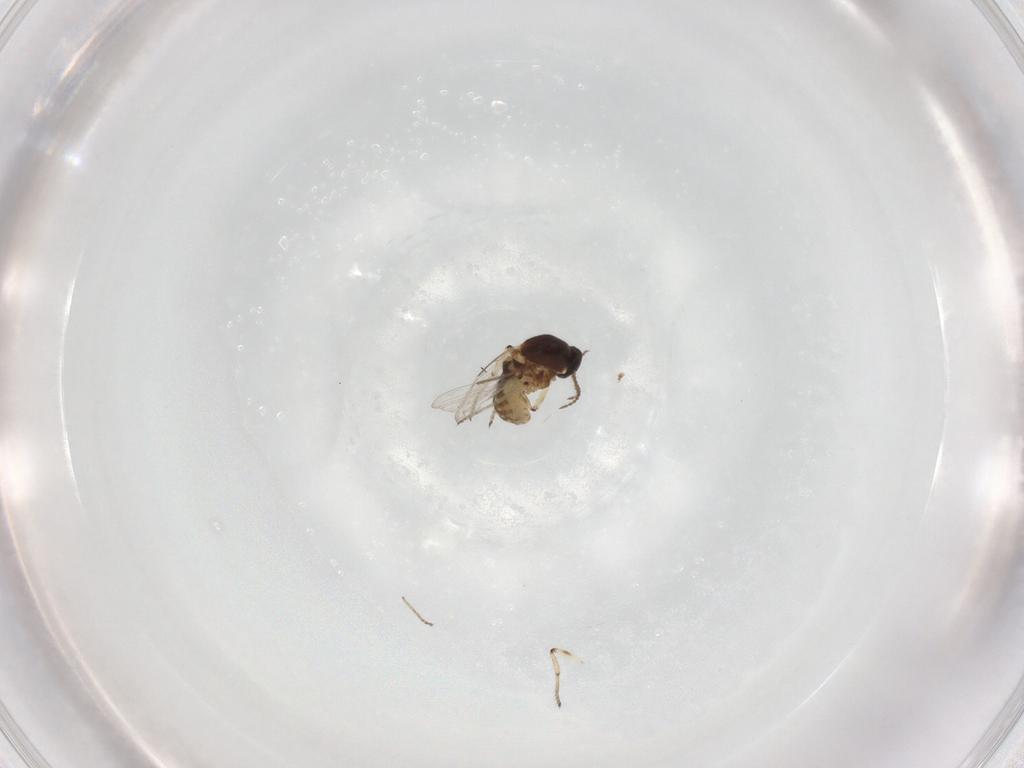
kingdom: Animalia
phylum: Arthropoda
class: Insecta
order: Diptera
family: Ceratopogonidae
